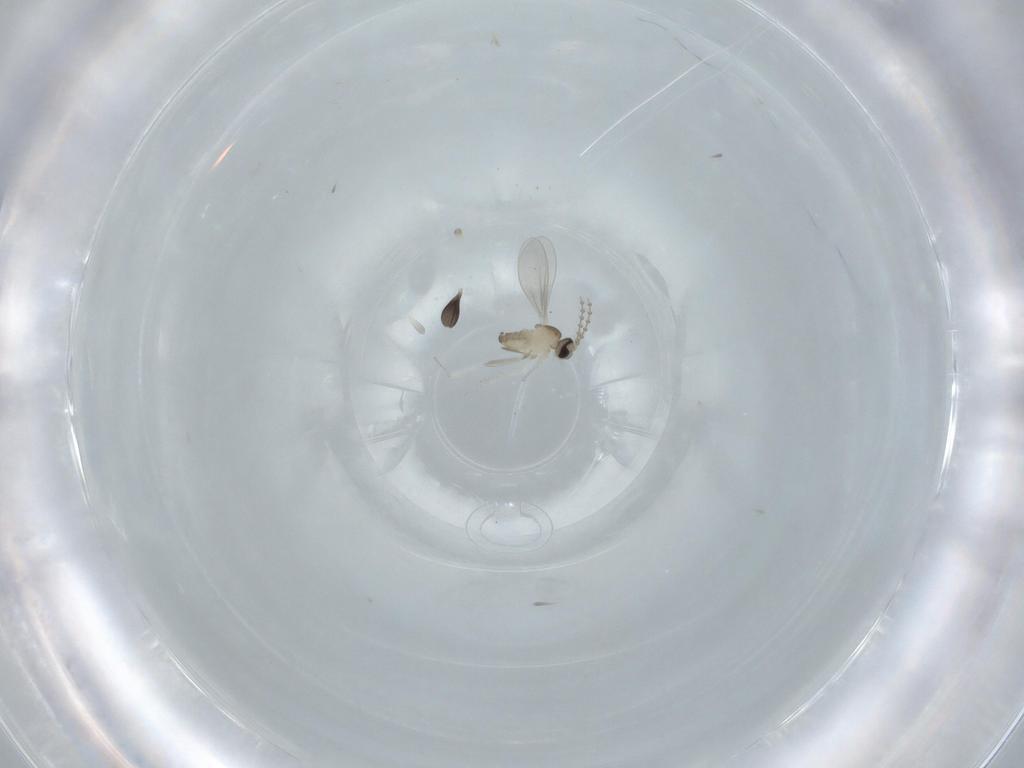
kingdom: Animalia
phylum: Arthropoda
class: Insecta
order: Diptera
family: Cecidomyiidae
